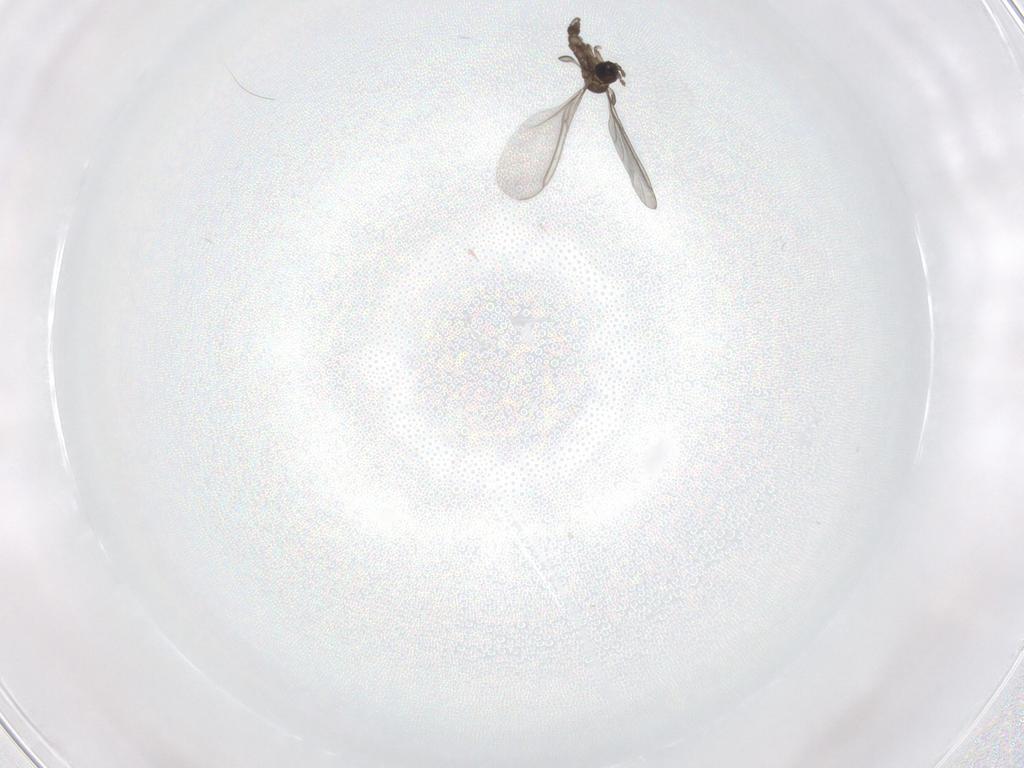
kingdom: Animalia
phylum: Arthropoda
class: Insecta
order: Diptera
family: Sciaridae
